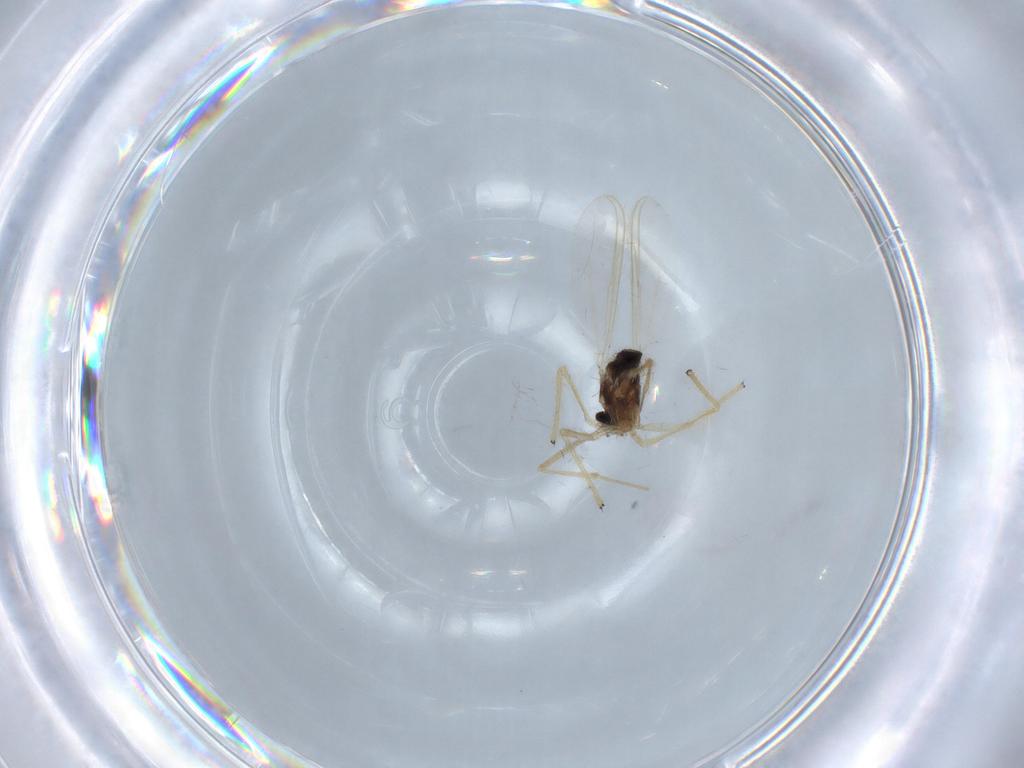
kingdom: Animalia
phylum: Arthropoda
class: Insecta
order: Diptera
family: Chironomidae
